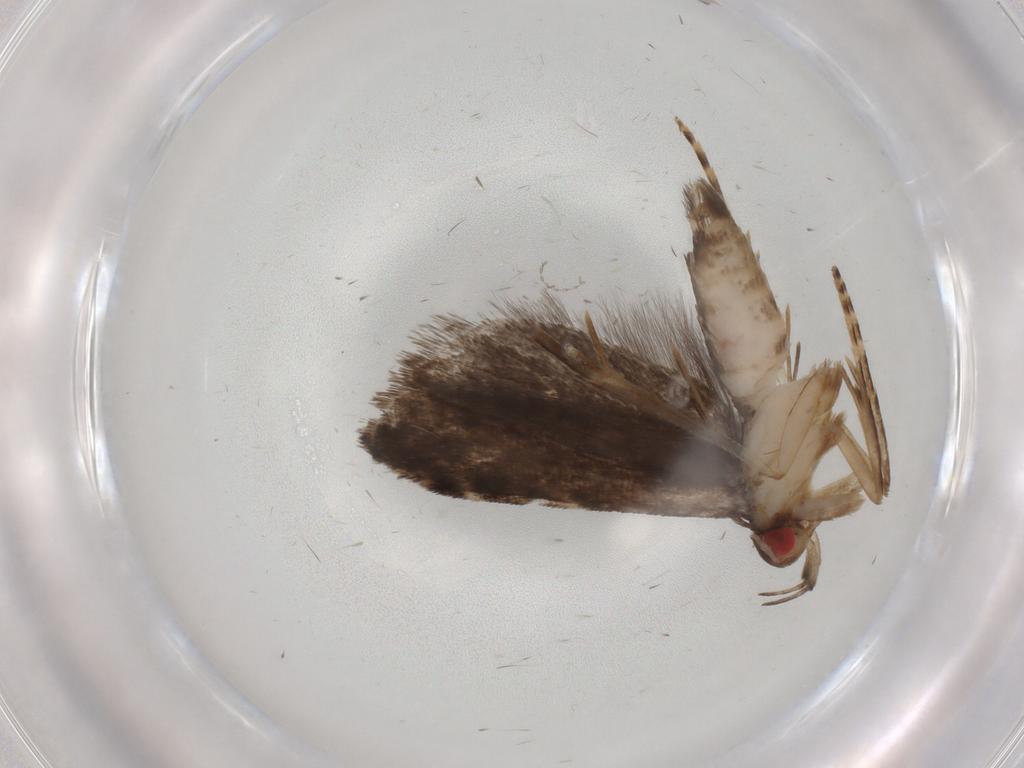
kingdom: Animalia
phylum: Arthropoda
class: Insecta
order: Lepidoptera
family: Gelechiidae
